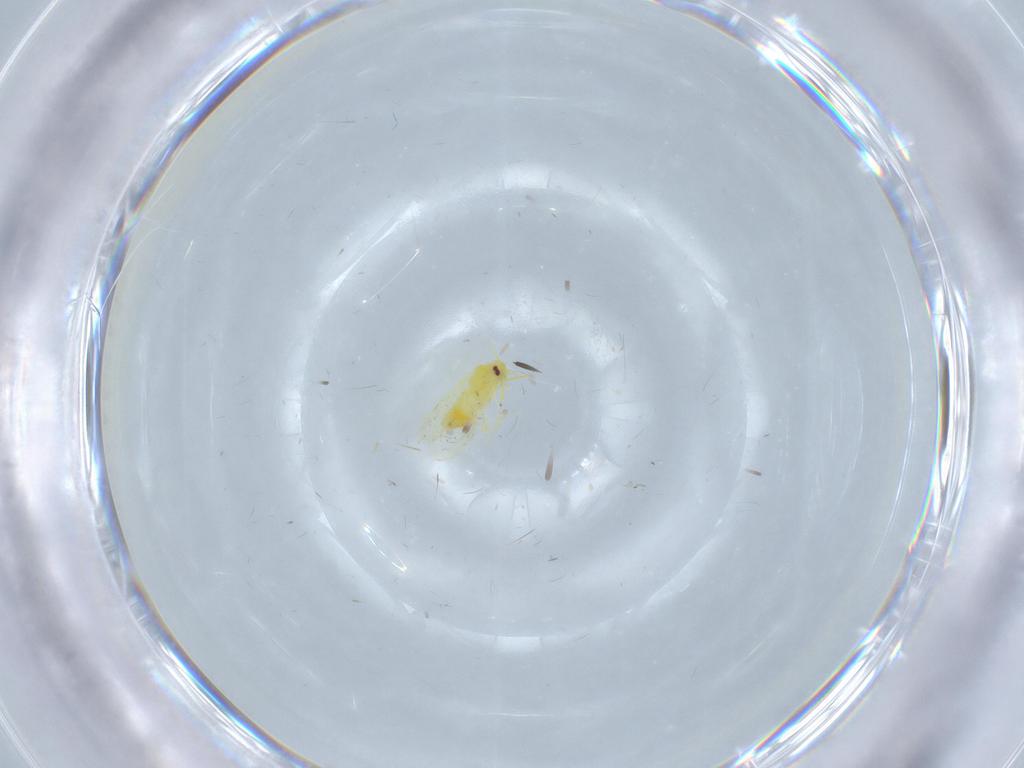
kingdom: Animalia
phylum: Arthropoda
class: Insecta
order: Hemiptera
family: Aleyrodidae
